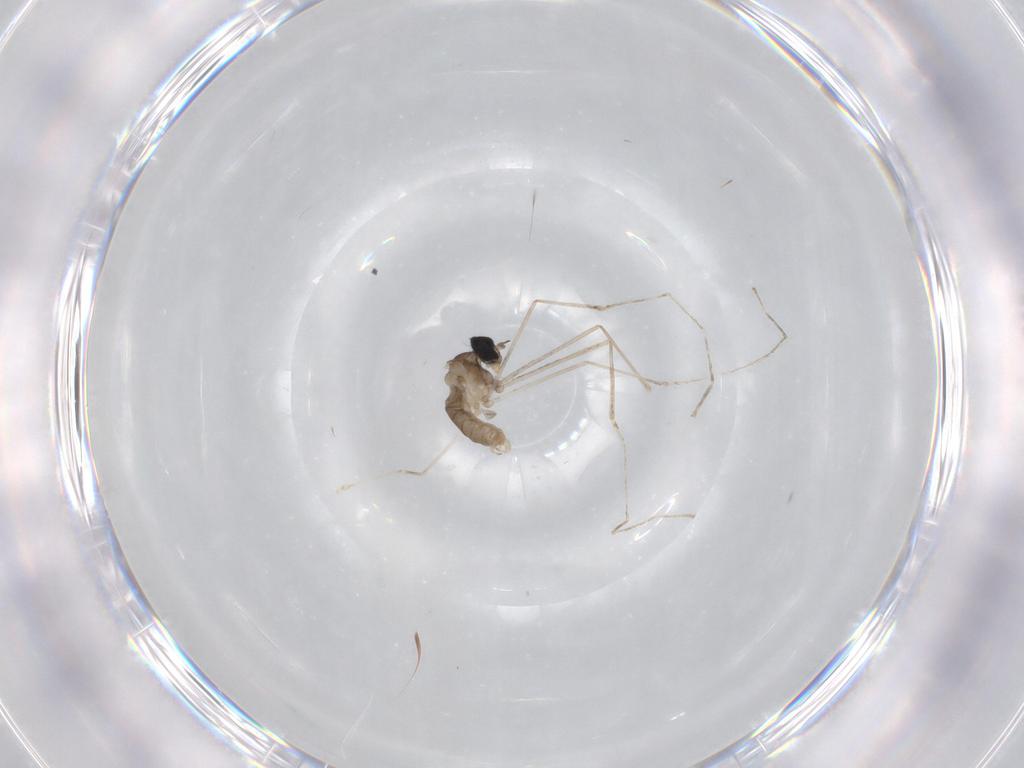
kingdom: Animalia
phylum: Arthropoda
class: Insecta
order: Diptera
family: Cecidomyiidae
